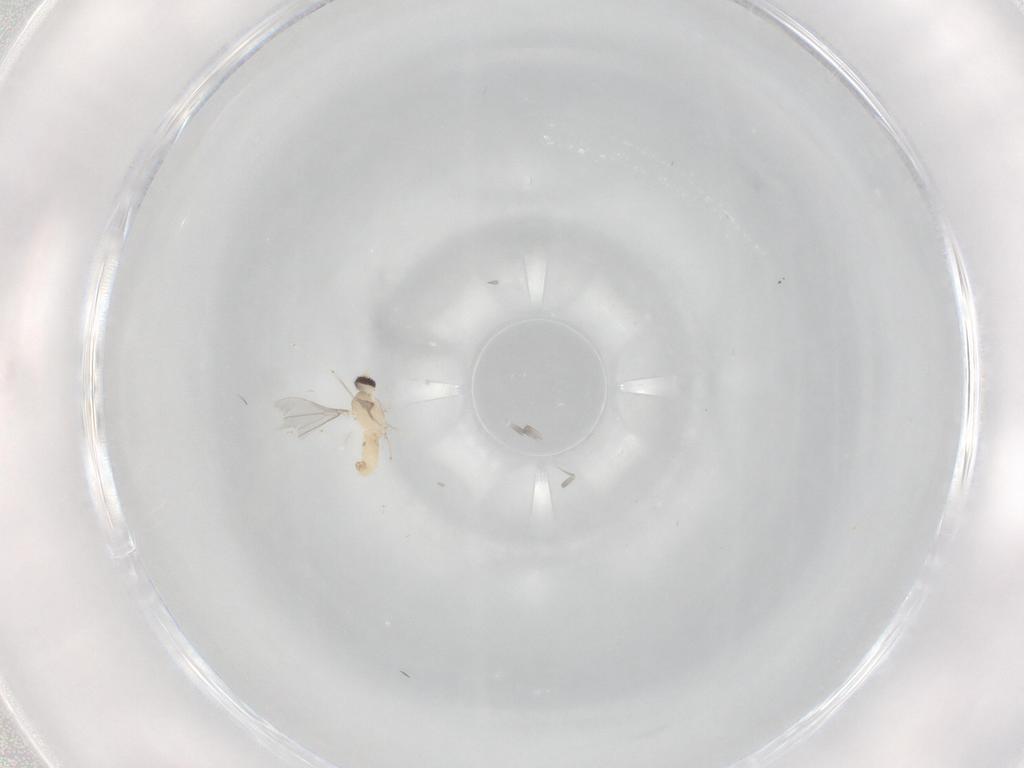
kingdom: Animalia
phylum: Arthropoda
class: Insecta
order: Diptera
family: Cecidomyiidae
